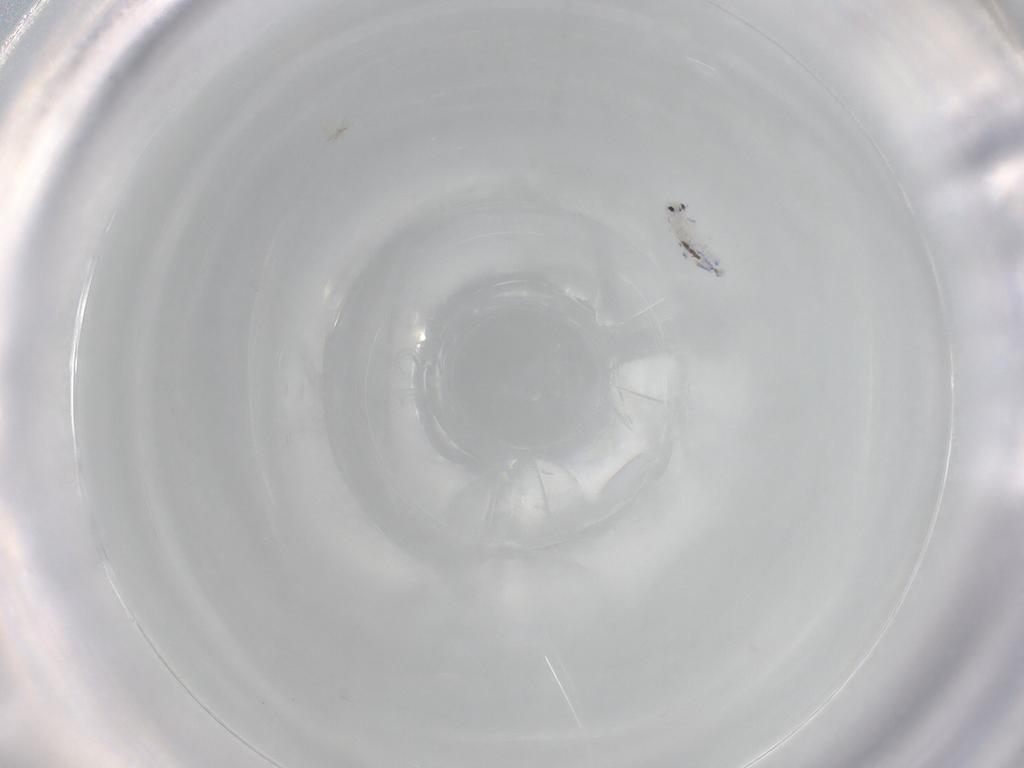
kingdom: Animalia
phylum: Arthropoda
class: Collembola
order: Entomobryomorpha
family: Entomobryidae
